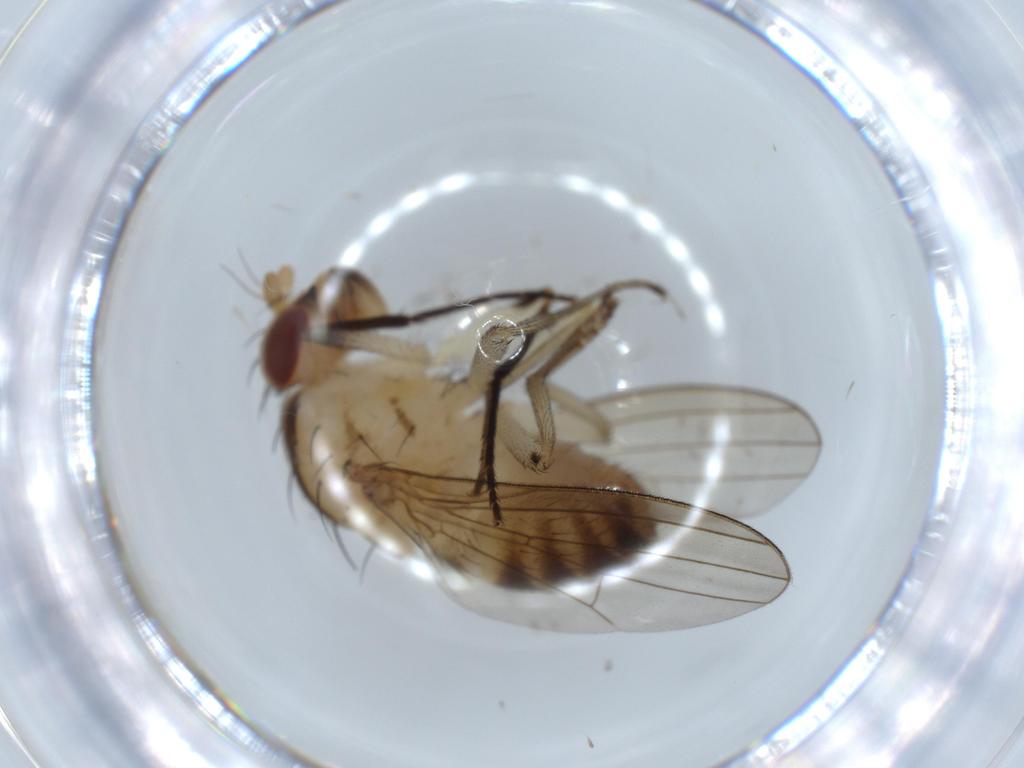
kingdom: Animalia
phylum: Arthropoda
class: Insecta
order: Diptera
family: Lauxaniidae
